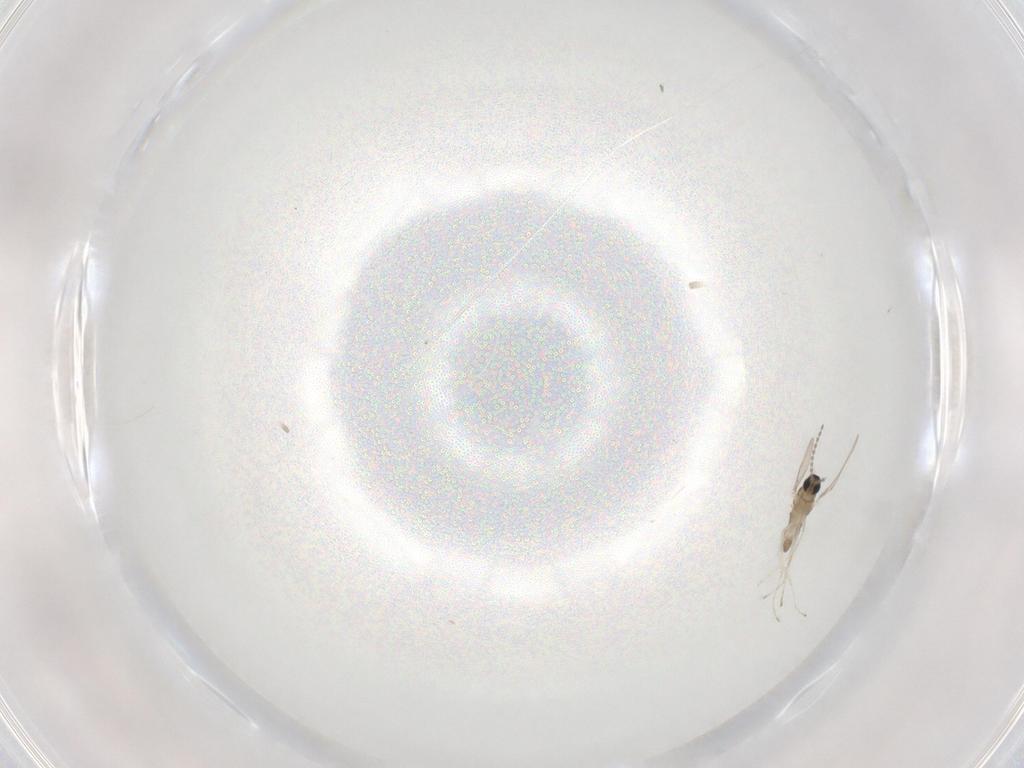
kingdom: Animalia
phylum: Arthropoda
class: Insecta
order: Diptera
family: Cecidomyiidae
